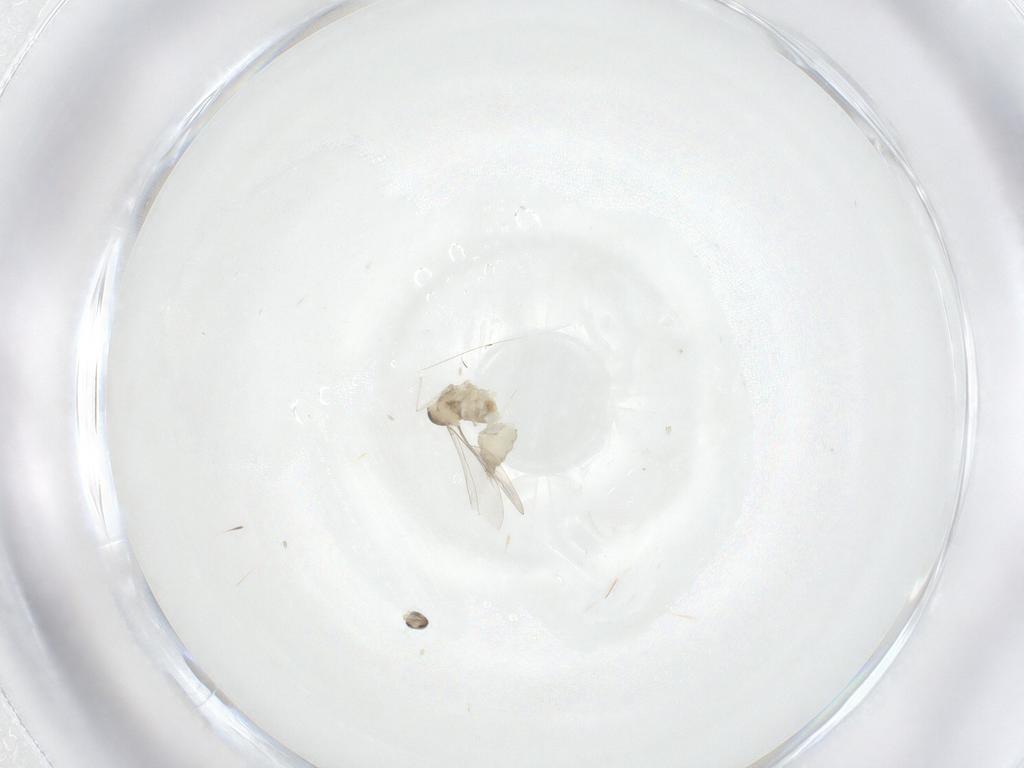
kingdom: Animalia
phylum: Arthropoda
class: Insecta
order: Diptera
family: Cecidomyiidae
